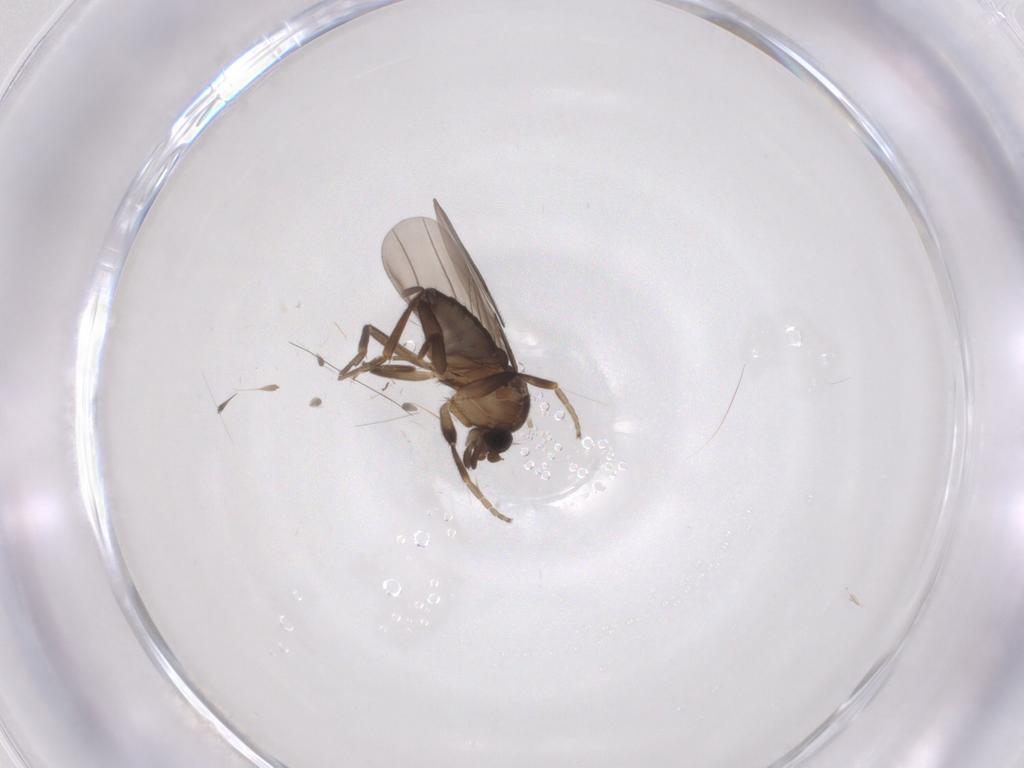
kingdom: Animalia
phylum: Arthropoda
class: Insecta
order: Diptera
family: Phoridae
